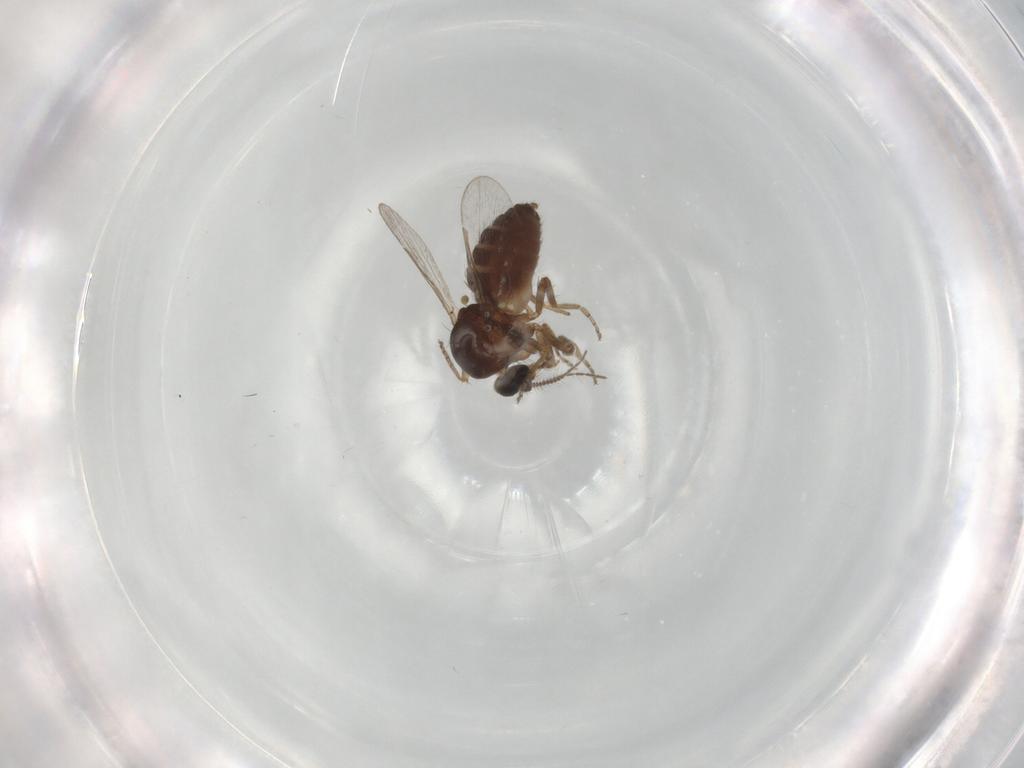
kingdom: Animalia
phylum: Arthropoda
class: Insecta
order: Diptera
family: Ceratopogonidae
